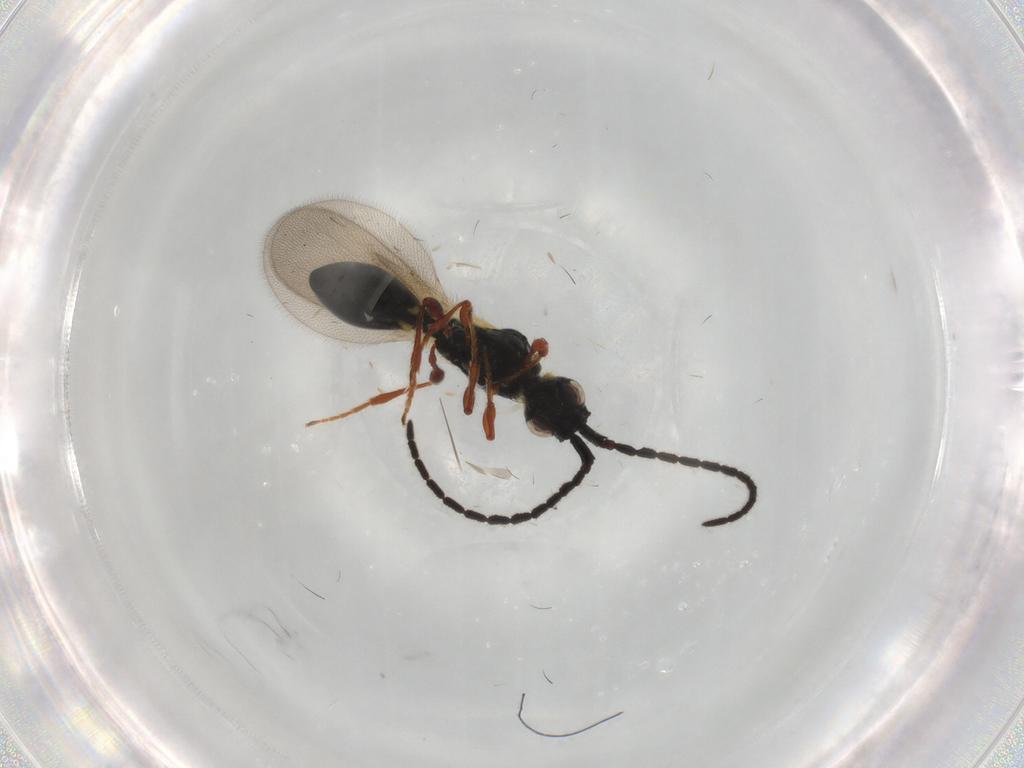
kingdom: Animalia
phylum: Arthropoda
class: Insecta
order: Hymenoptera
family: Diapriidae
